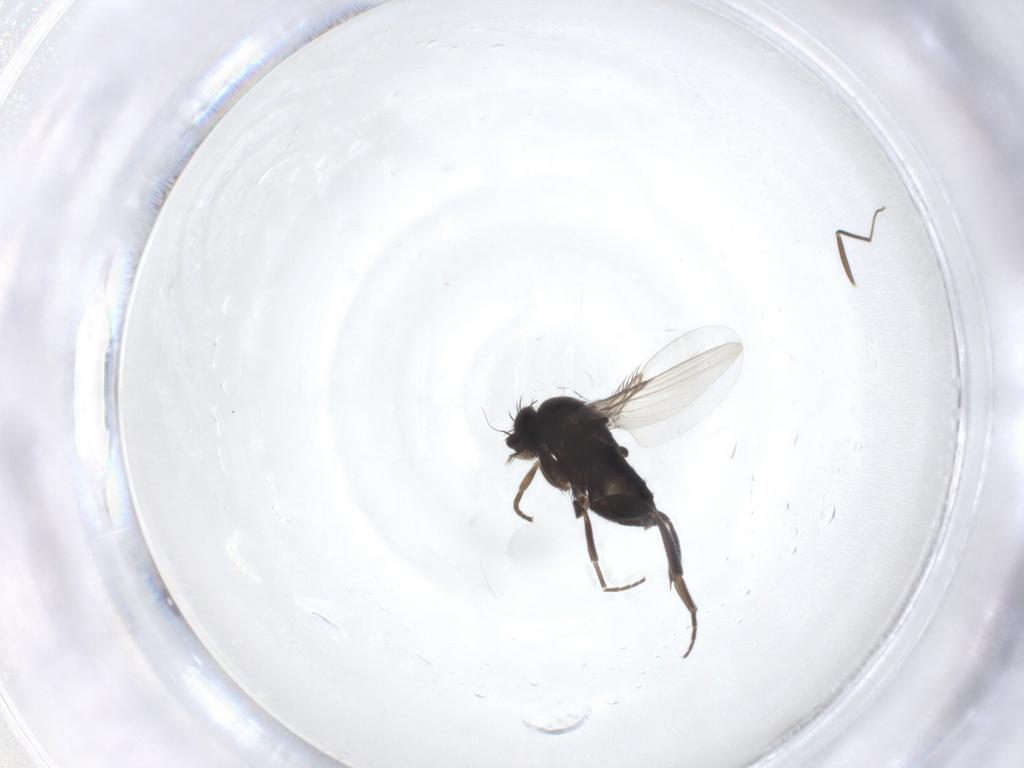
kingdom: Animalia
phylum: Arthropoda
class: Insecta
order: Diptera
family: Phoridae
